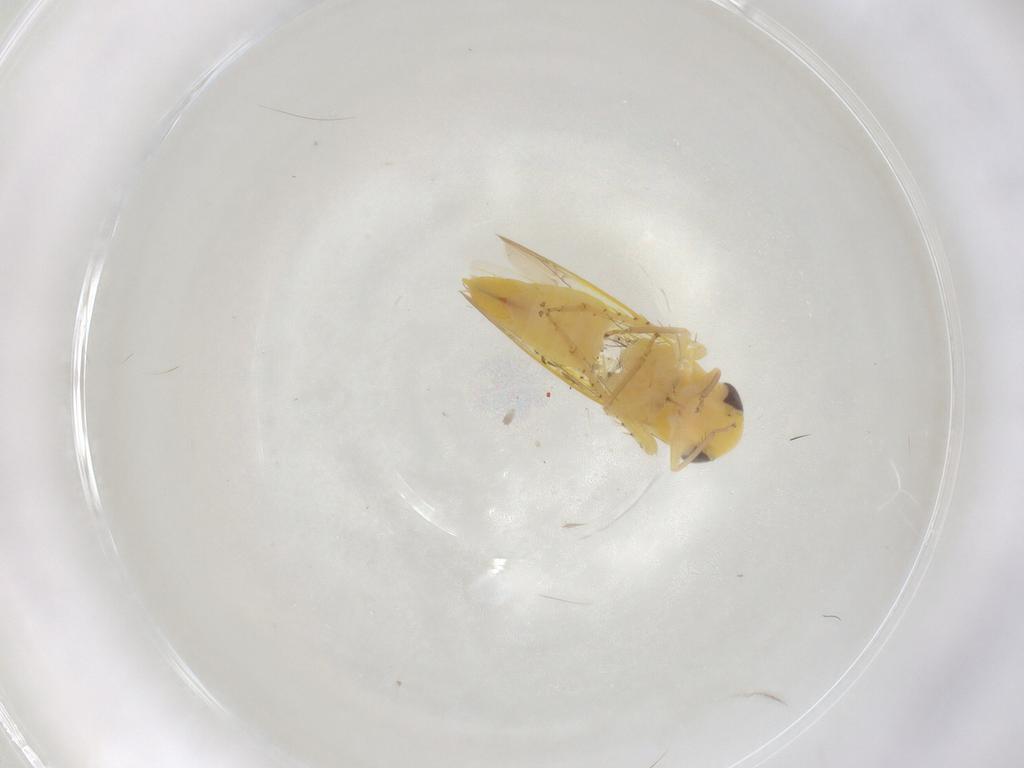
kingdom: Animalia
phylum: Arthropoda
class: Insecta
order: Hemiptera
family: Cicadellidae
